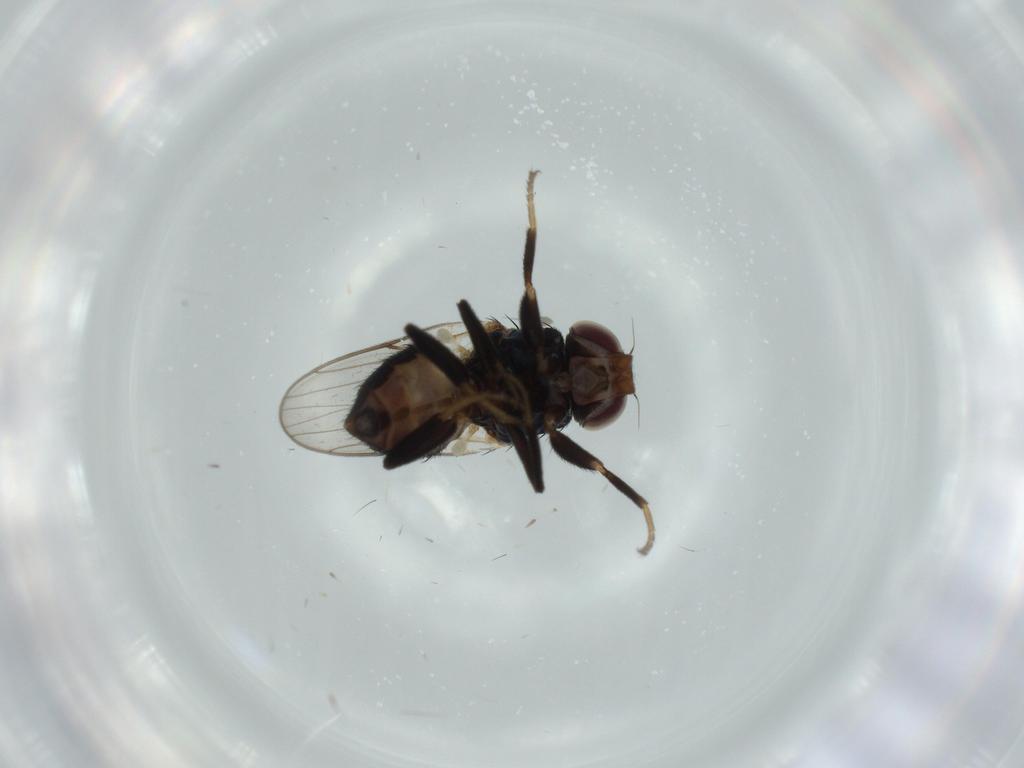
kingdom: Animalia
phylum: Arthropoda
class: Insecta
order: Diptera
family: Chloropidae
